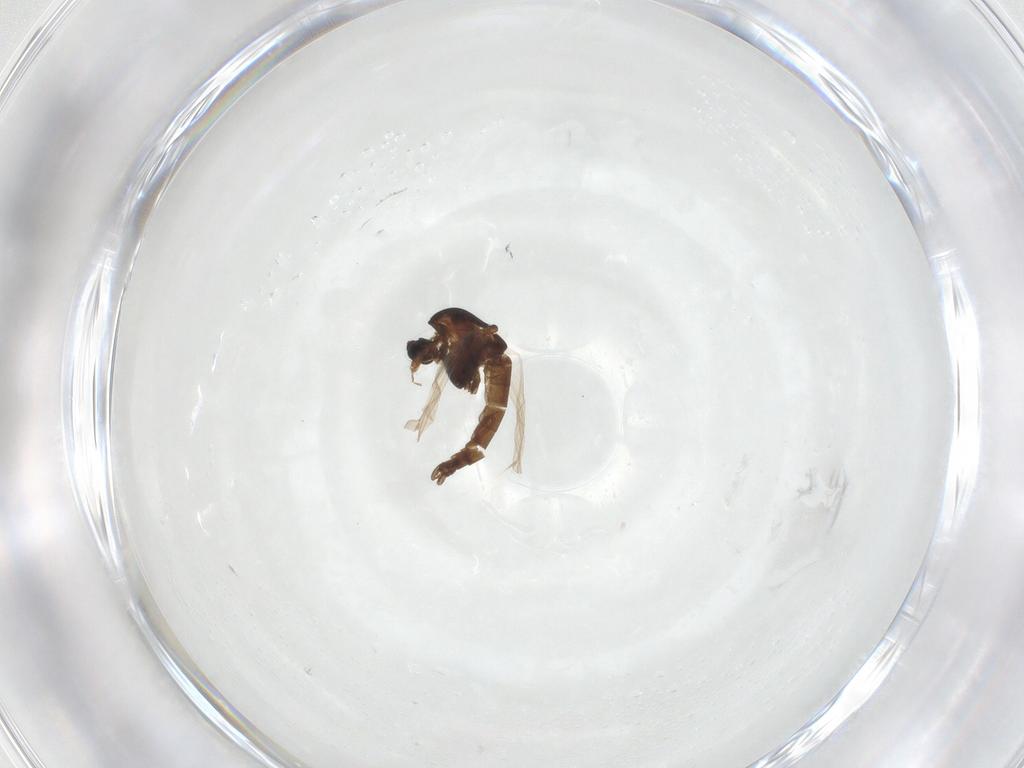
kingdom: Animalia
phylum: Arthropoda
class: Insecta
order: Diptera
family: Chironomidae
